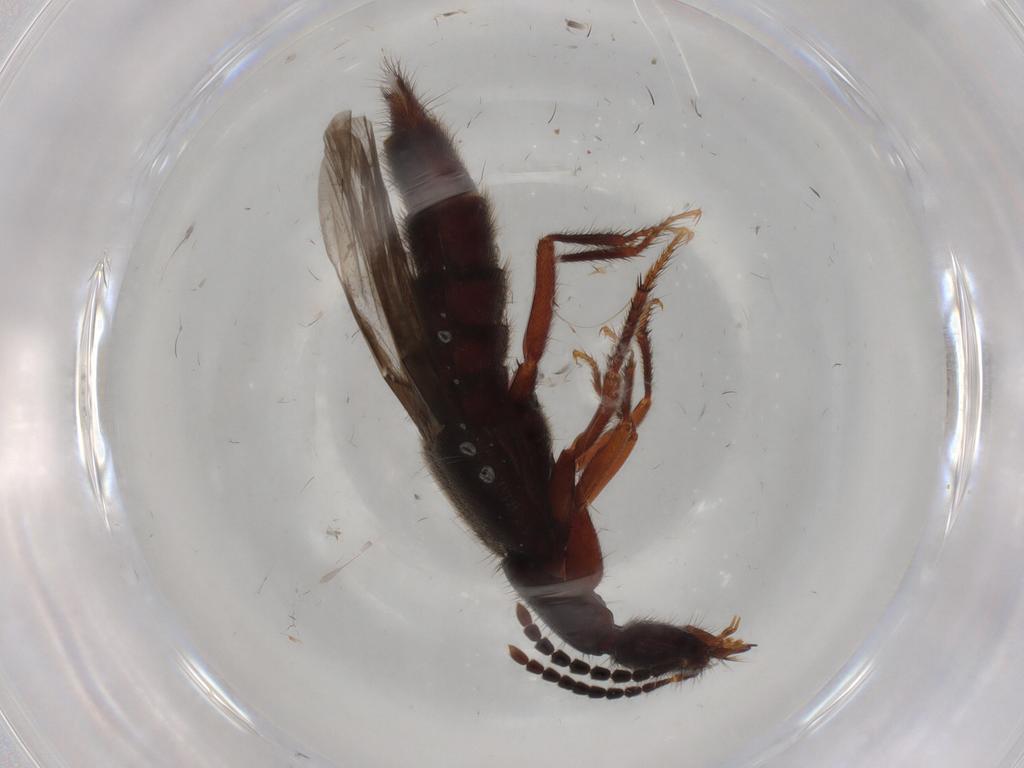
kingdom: Animalia
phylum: Arthropoda
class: Insecta
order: Coleoptera
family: Staphylinidae
